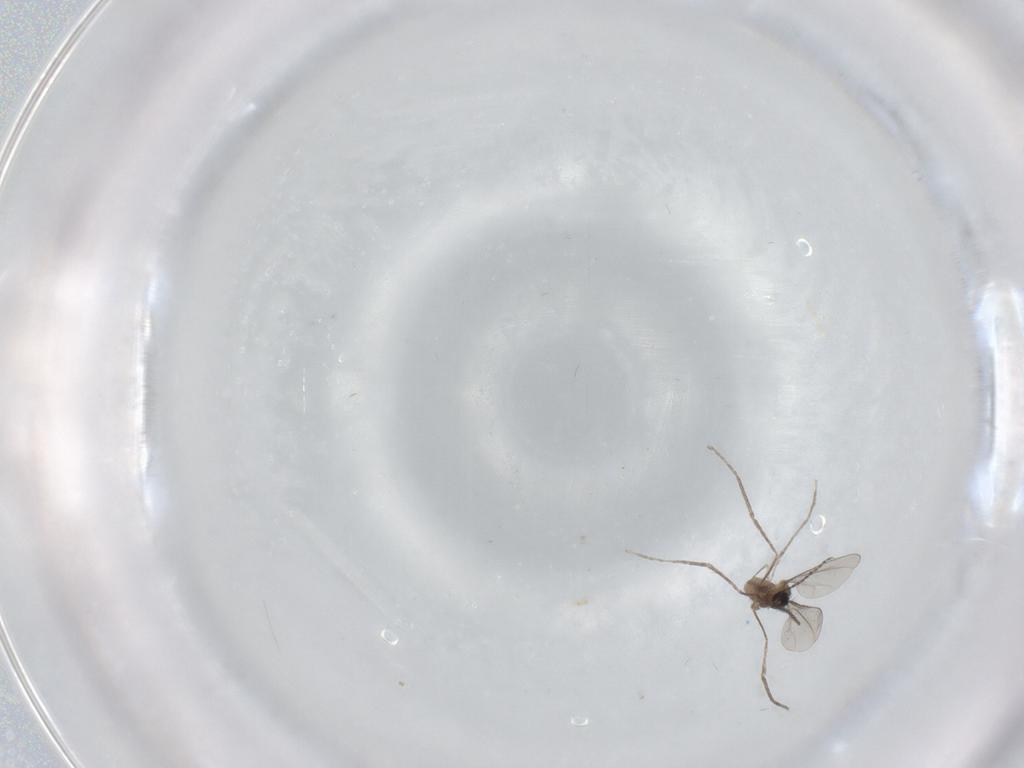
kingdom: Animalia
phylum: Arthropoda
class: Insecta
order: Diptera
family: Cecidomyiidae
